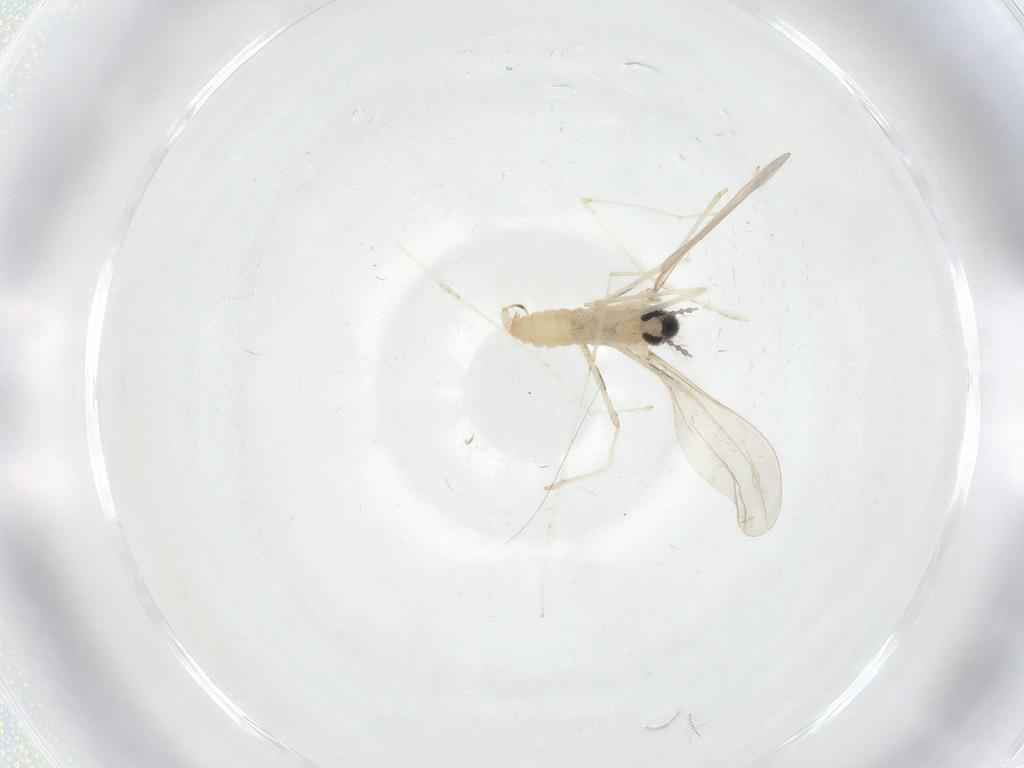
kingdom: Animalia
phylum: Arthropoda
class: Insecta
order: Diptera
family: Cecidomyiidae
